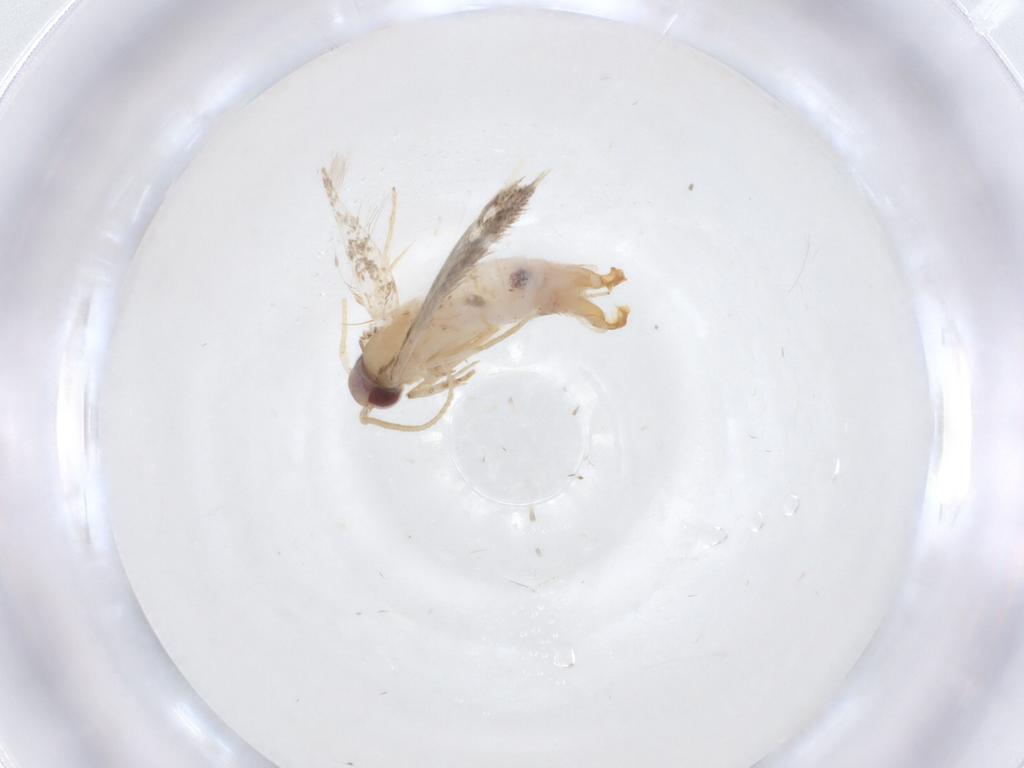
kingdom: Animalia
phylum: Arthropoda
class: Insecta
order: Lepidoptera
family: Cosmopterigidae
